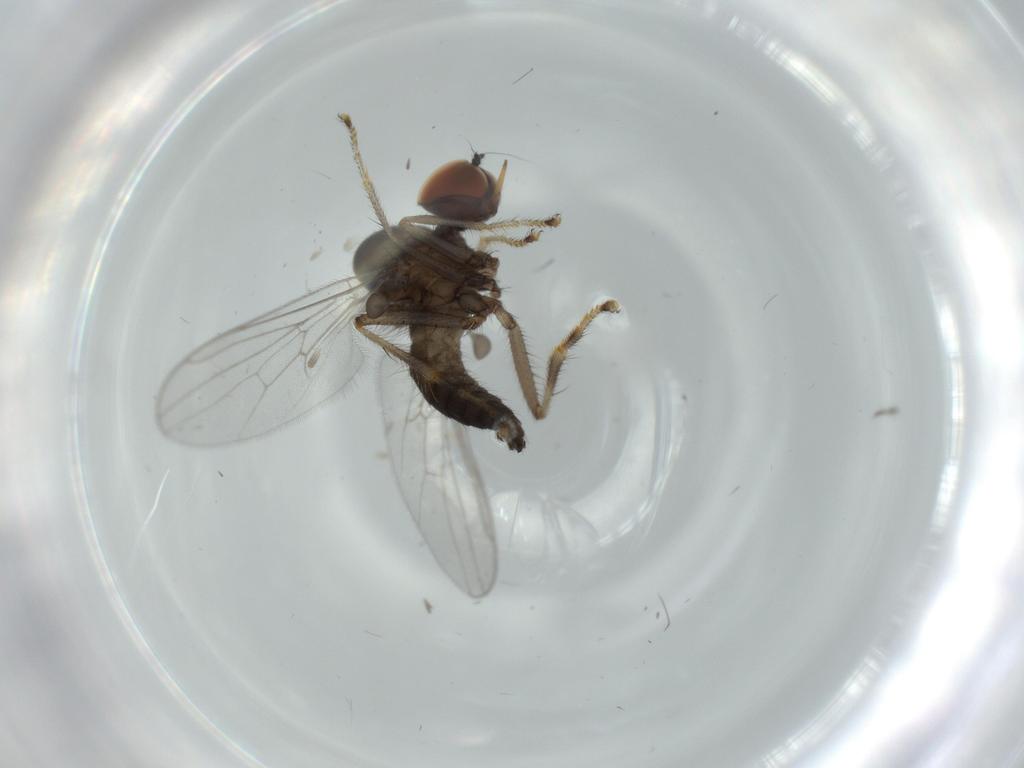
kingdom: Animalia
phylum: Arthropoda
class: Insecta
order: Diptera
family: Hybotidae
